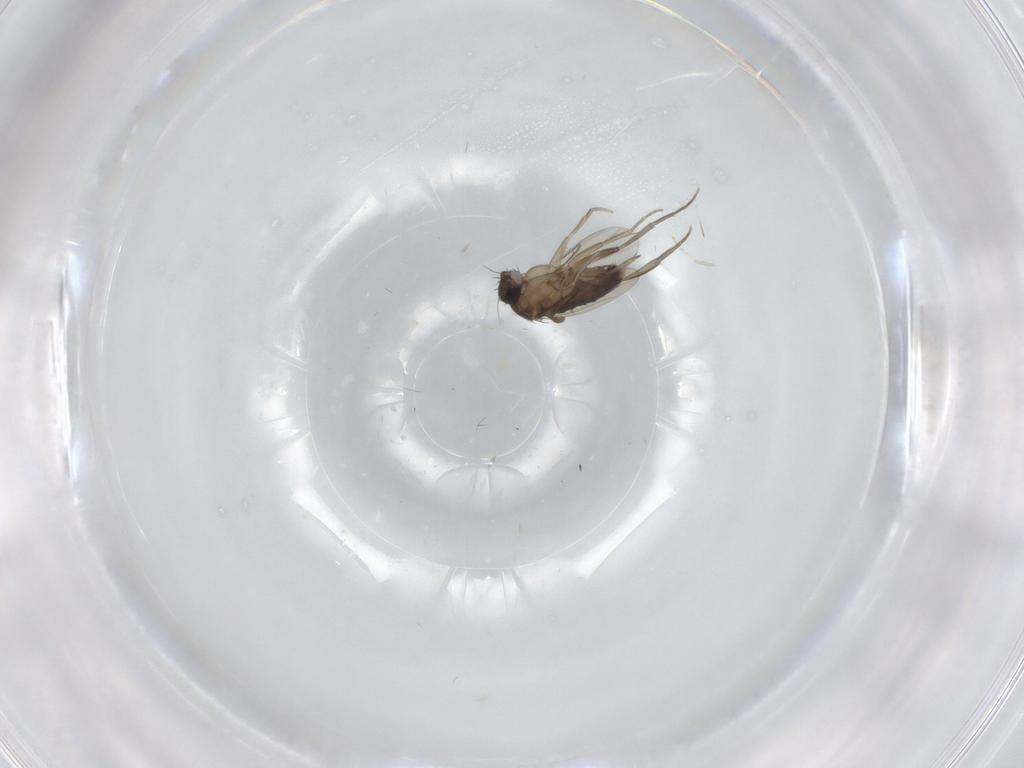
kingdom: Animalia
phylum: Arthropoda
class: Insecta
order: Diptera
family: Phoridae
